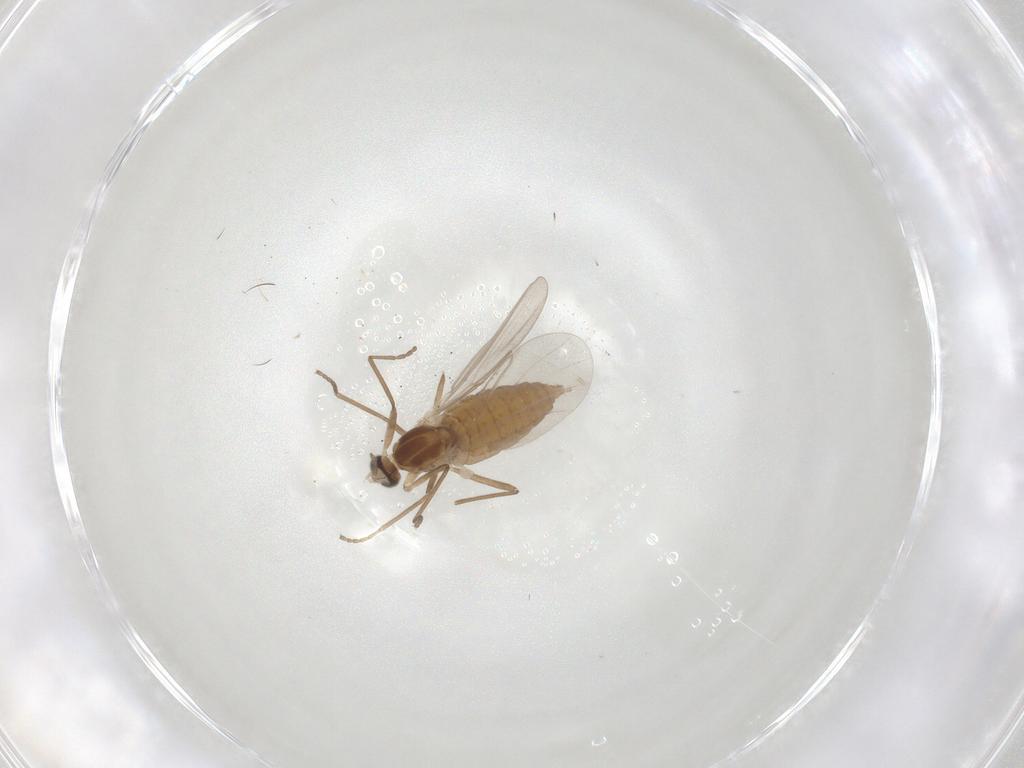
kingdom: Animalia
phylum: Arthropoda
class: Insecta
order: Diptera
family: Cecidomyiidae
